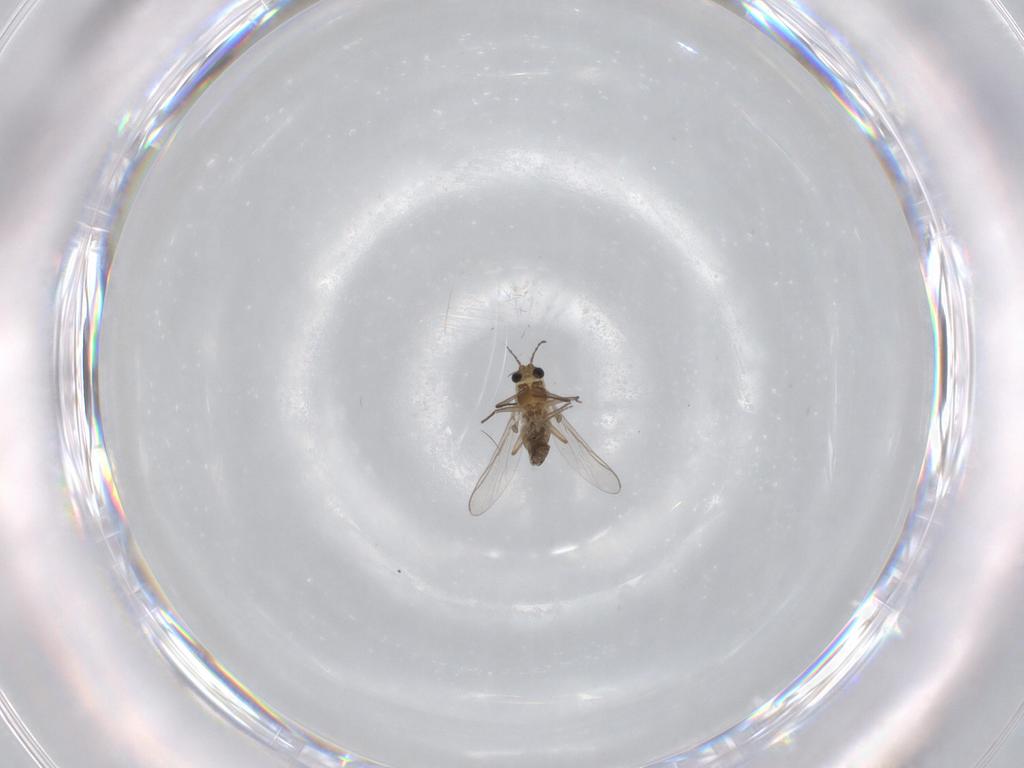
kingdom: Animalia
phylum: Arthropoda
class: Insecta
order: Diptera
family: Chironomidae
